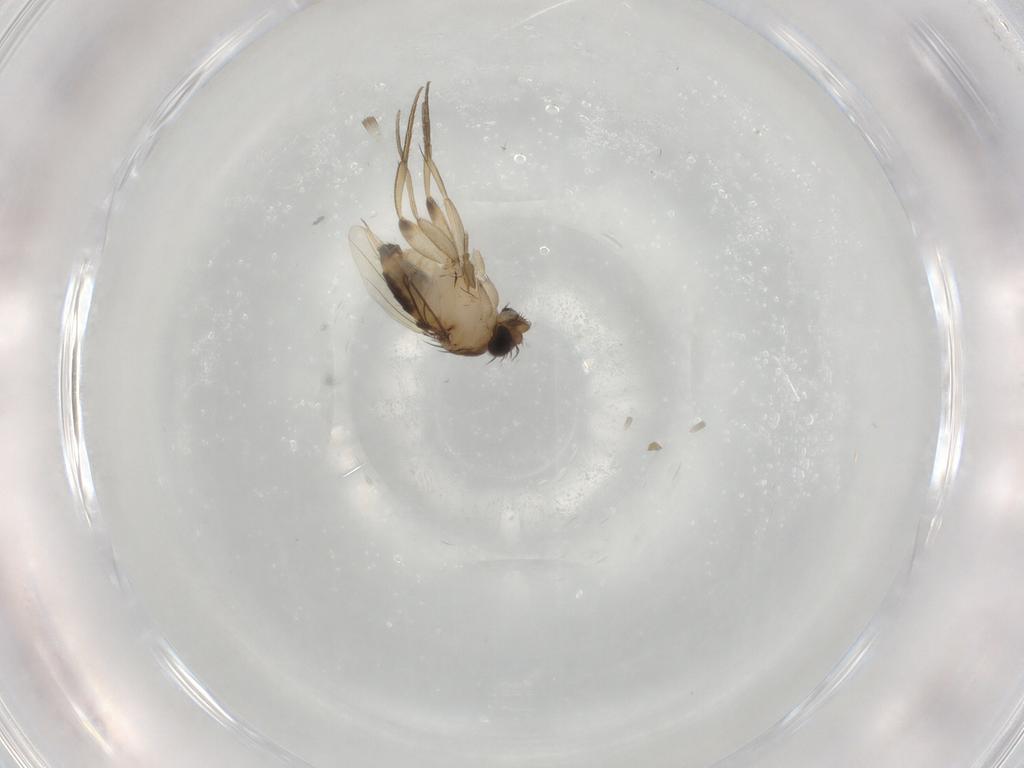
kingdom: Animalia
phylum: Arthropoda
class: Insecta
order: Diptera
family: Phoridae
